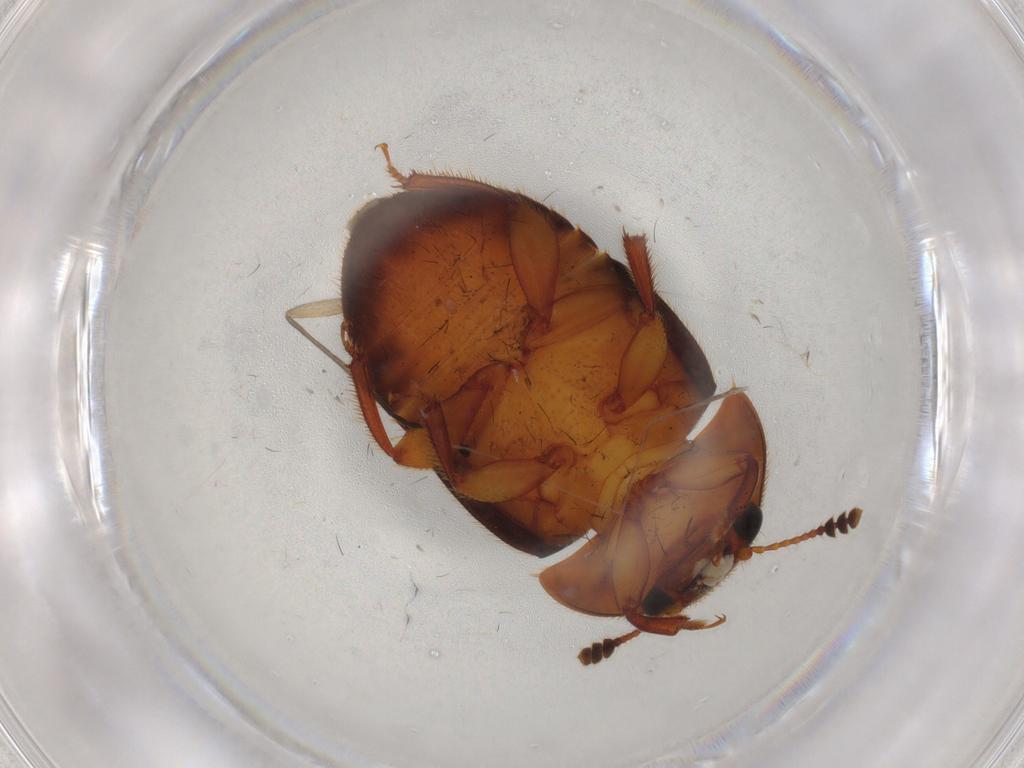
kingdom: Animalia
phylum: Arthropoda
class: Insecta
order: Coleoptera
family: Nitidulidae
